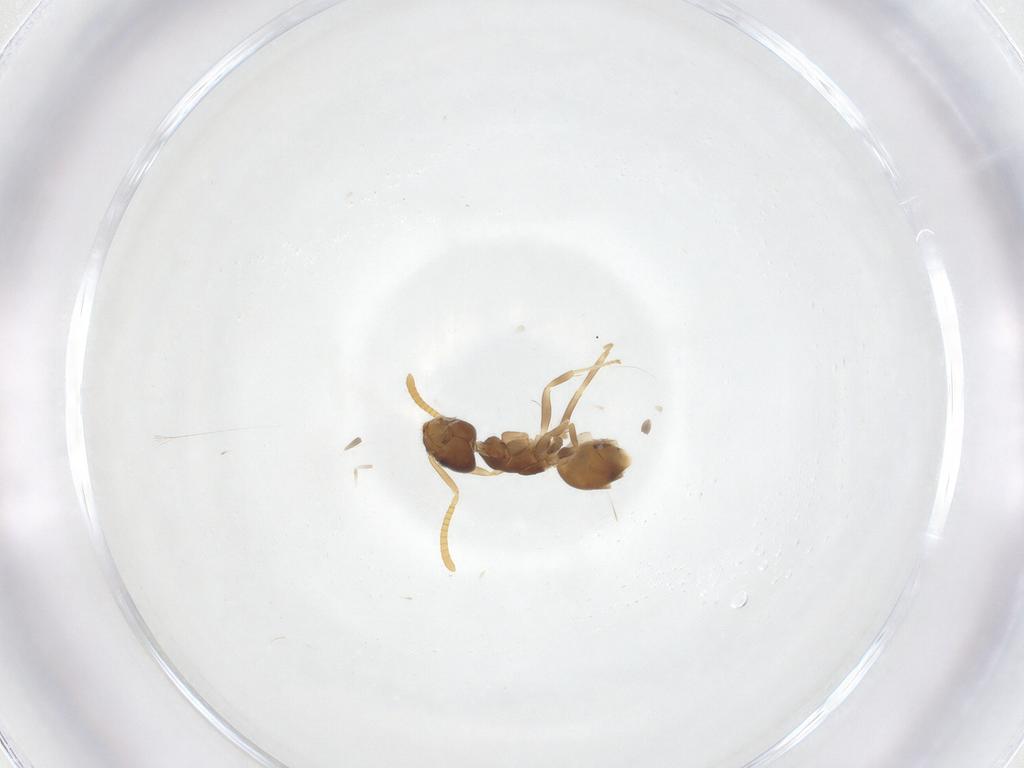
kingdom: Animalia
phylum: Arthropoda
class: Insecta
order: Hymenoptera
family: Formicidae
